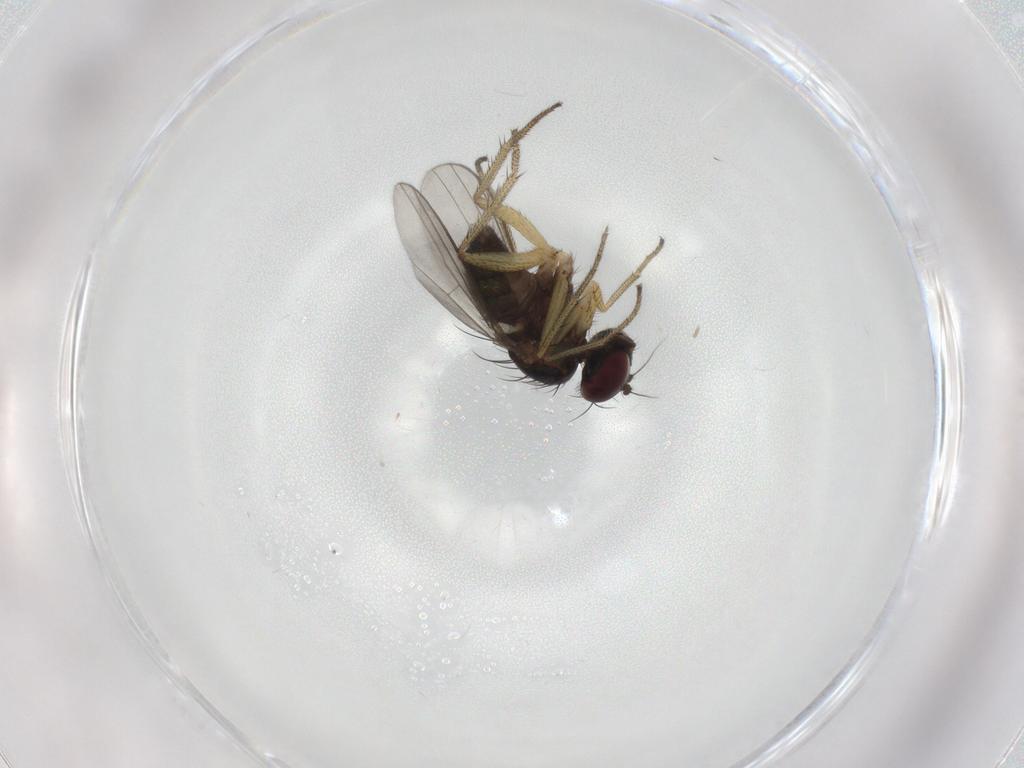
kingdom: Animalia
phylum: Arthropoda
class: Insecta
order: Diptera
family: Dolichopodidae
